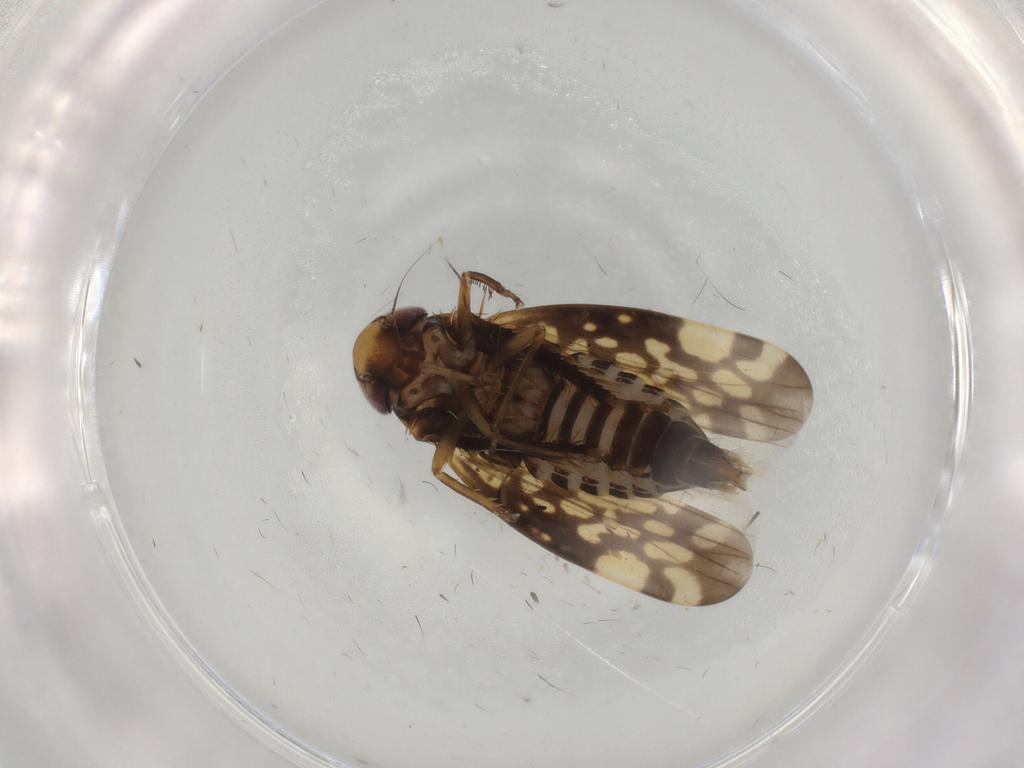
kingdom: Animalia
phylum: Arthropoda
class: Insecta
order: Hemiptera
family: Cicadellidae
